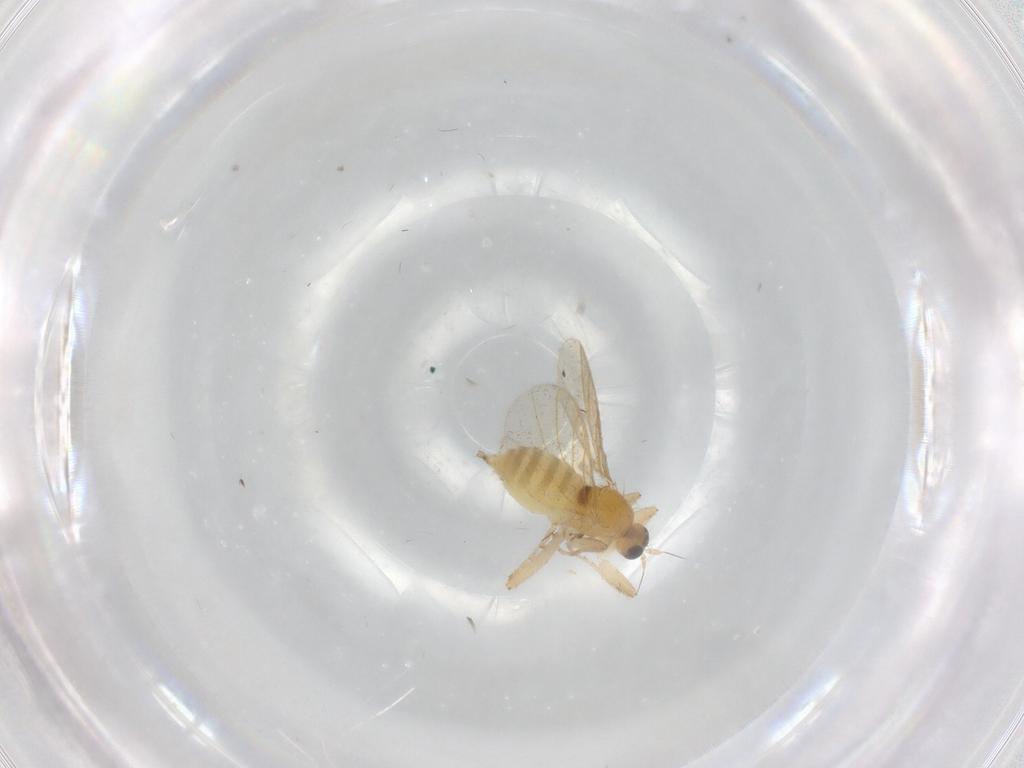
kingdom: Animalia
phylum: Arthropoda
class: Insecta
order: Diptera
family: Hybotidae
